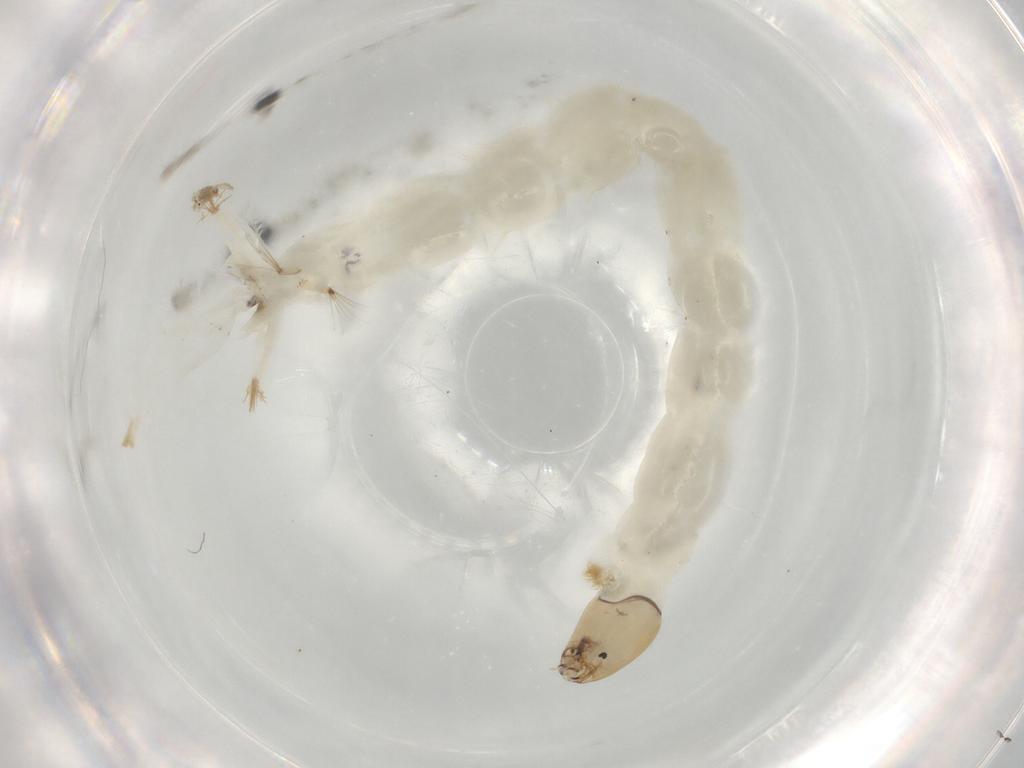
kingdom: Animalia
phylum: Arthropoda
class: Insecta
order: Diptera
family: Chironomidae
